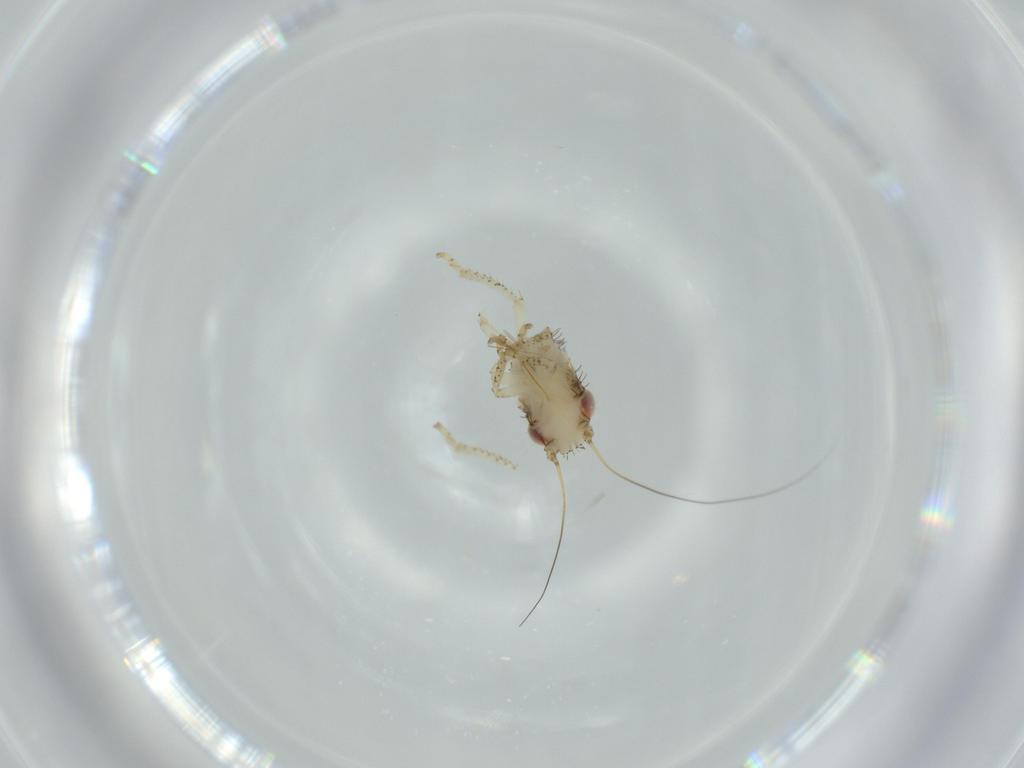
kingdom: Animalia
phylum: Arthropoda
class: Insecta
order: Hemiptera
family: Cicadellidae
